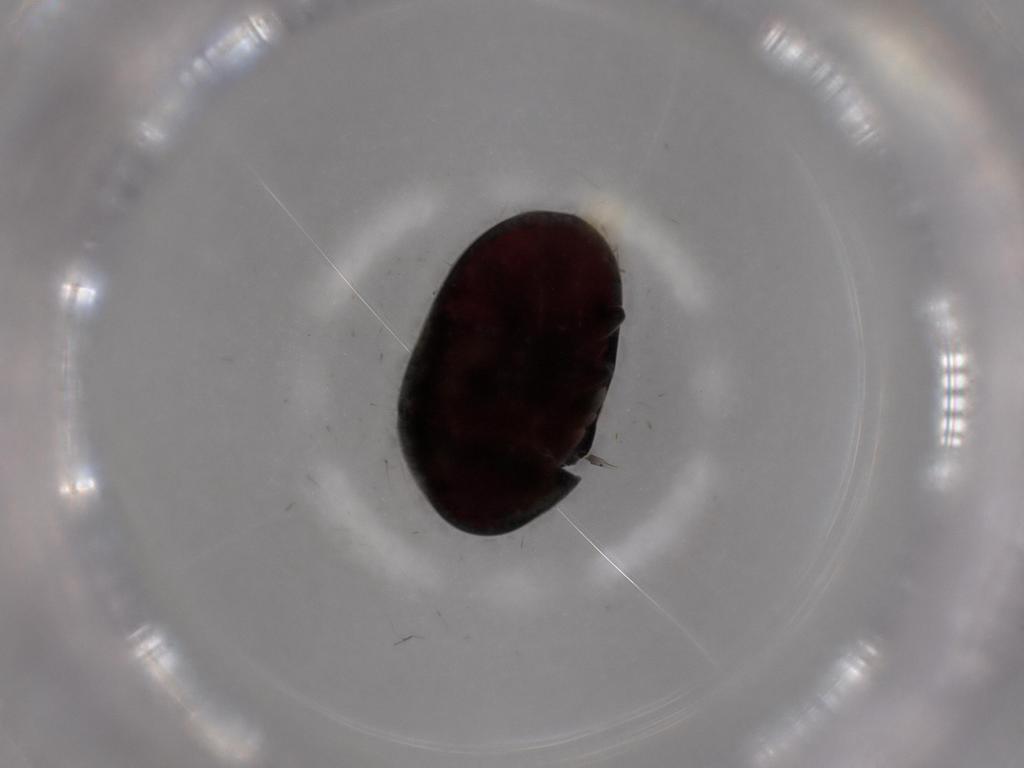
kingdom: Animalia
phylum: Arthropoda
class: Insecta
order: Coleoptera
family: Ptinidae
